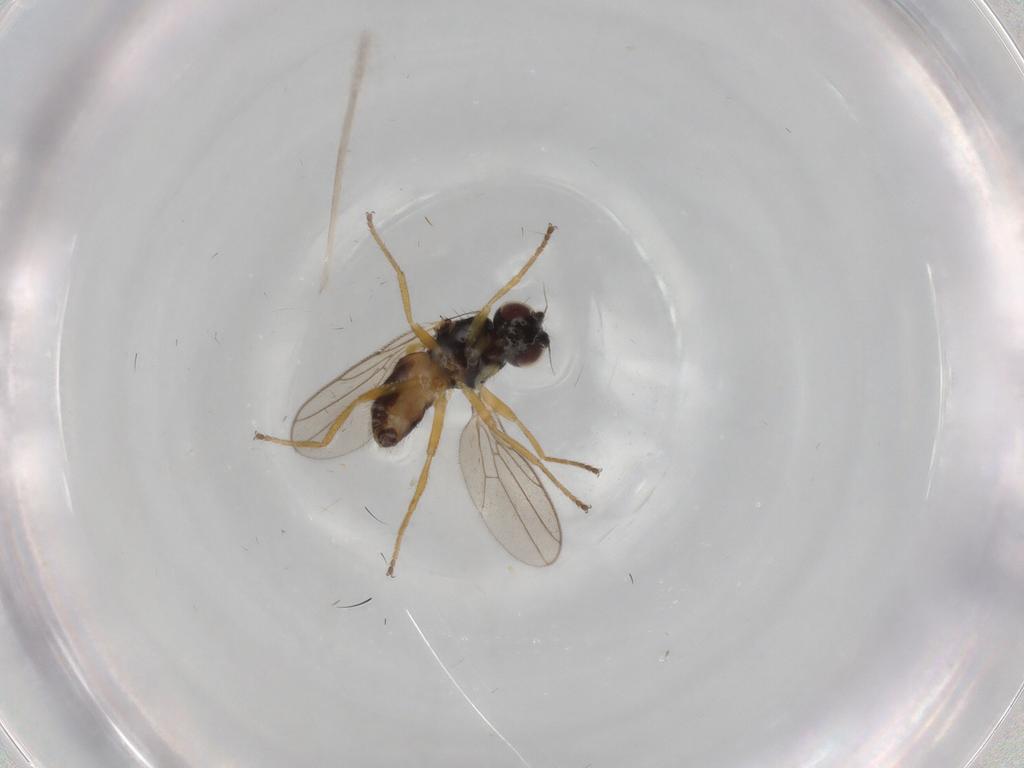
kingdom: Animalia
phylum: Arthropoda
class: Insecta
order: Diptera
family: Chloropidae
